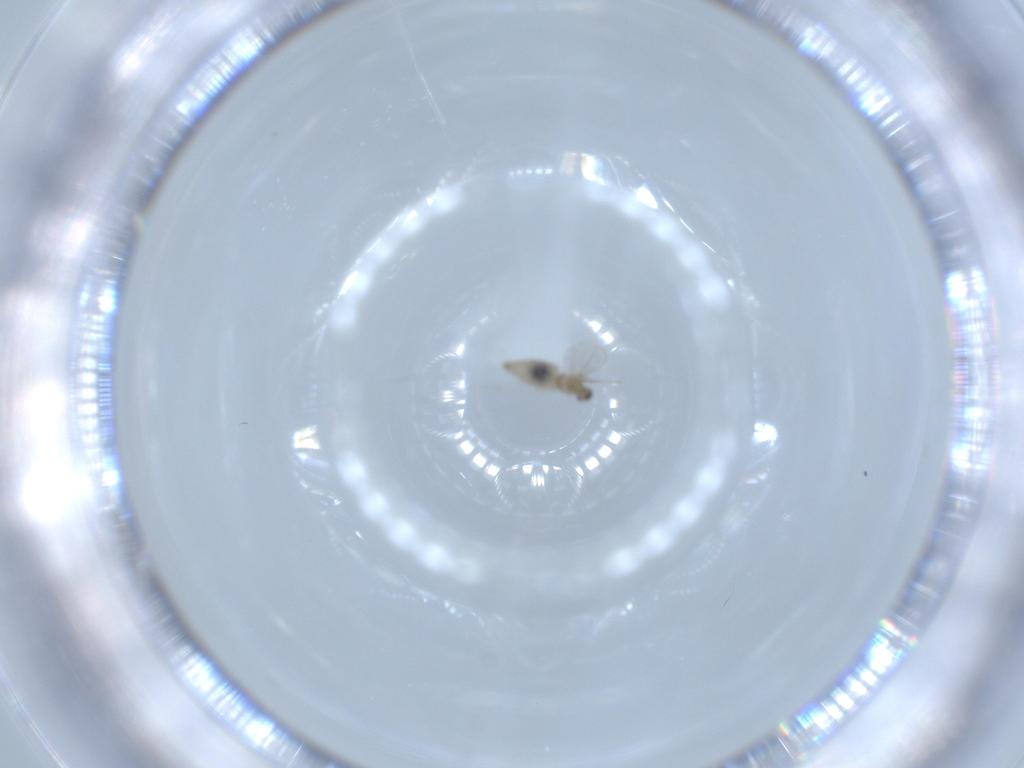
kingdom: Animalia
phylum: Arthropoda
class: Insecta
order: Diptera
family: Cecidomyiidae
